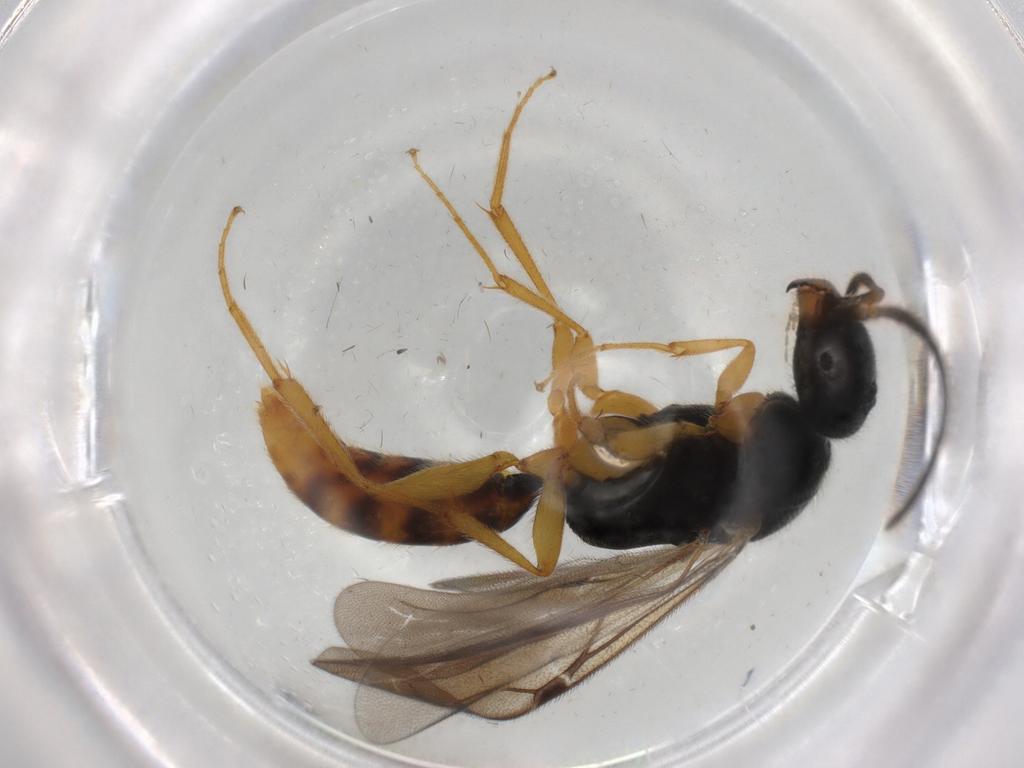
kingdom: Animalia
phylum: Arthropoda
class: Insecta
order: Hymenoptera
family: Bethylidae
